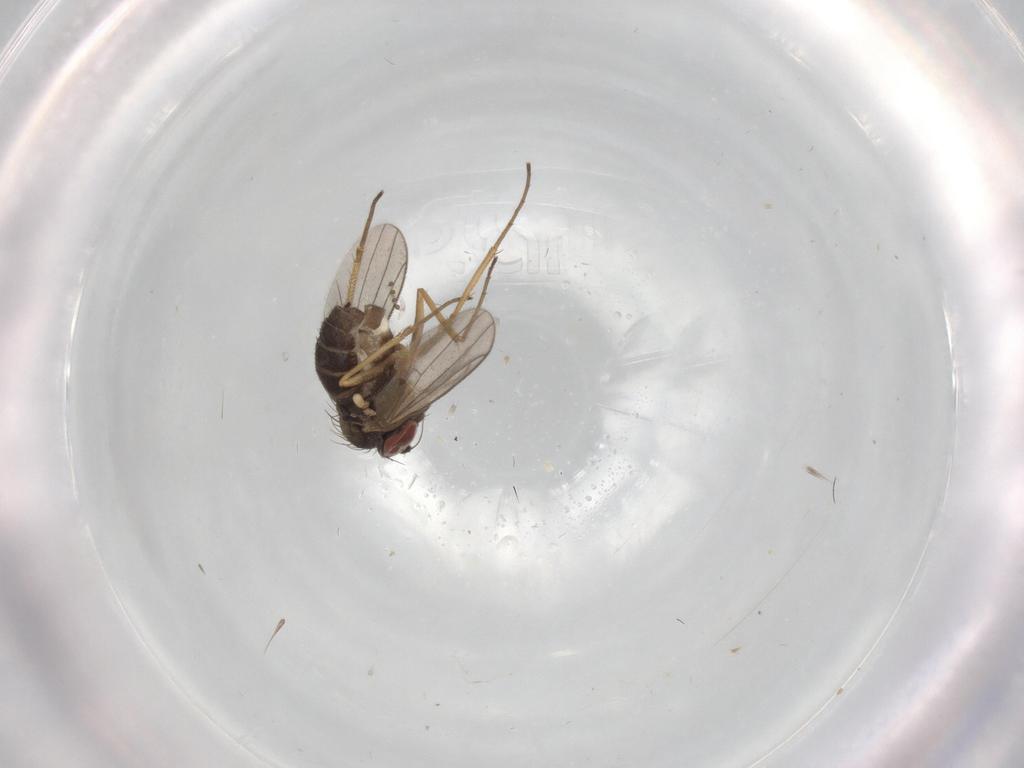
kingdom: Animalia
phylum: Arthropoda
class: Insecta
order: Diptera
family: Dolichopodidae
